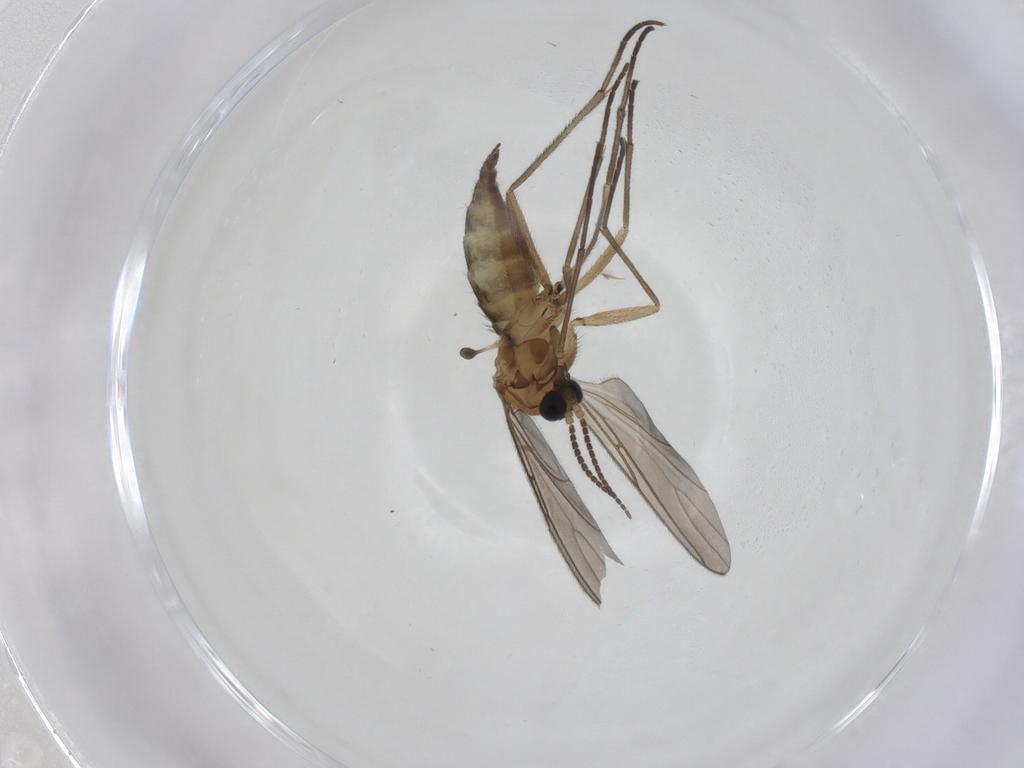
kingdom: Animalia
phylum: Arthropoda
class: Insecta
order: Diptera
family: Sciaridae
